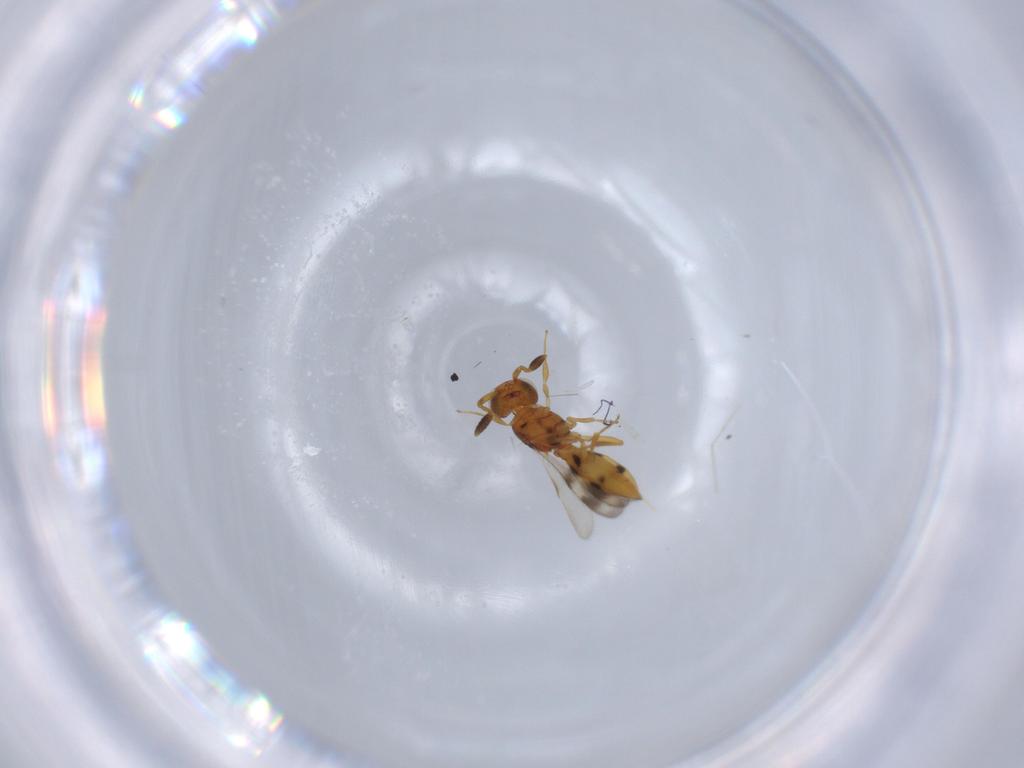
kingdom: Animalia
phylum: Arthropoda
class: Insecta
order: Hymenoptera
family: Scelionidae
